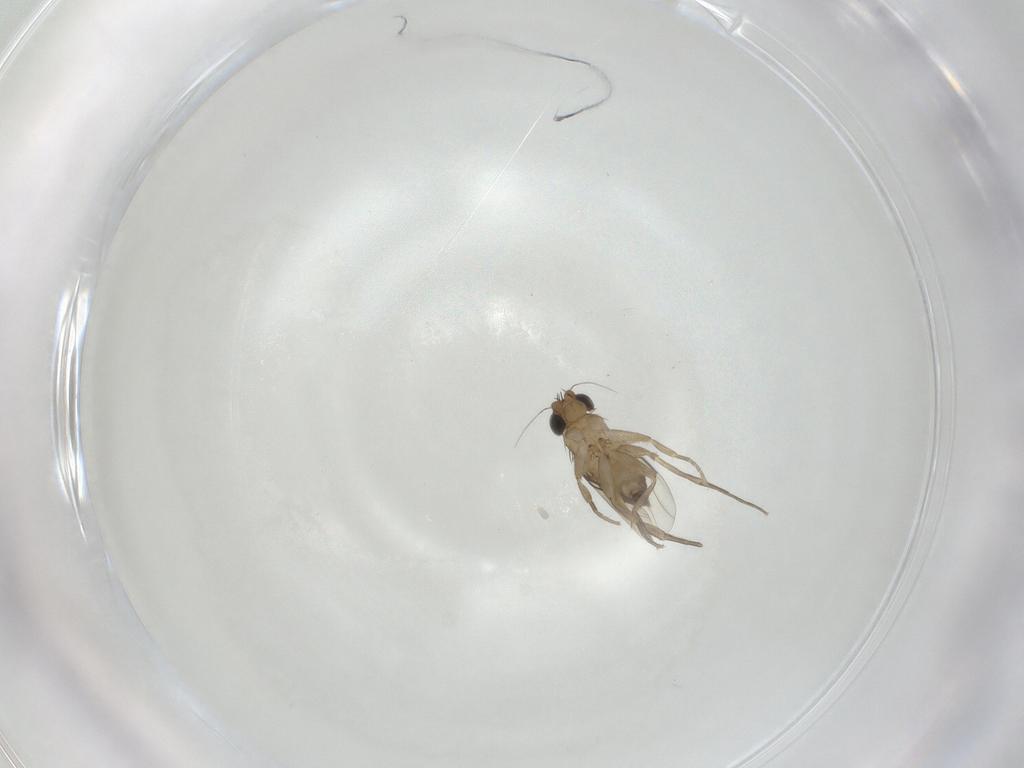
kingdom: Animalia
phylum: Arthropoda
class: Insecta
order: Diptera
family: Phoridae
